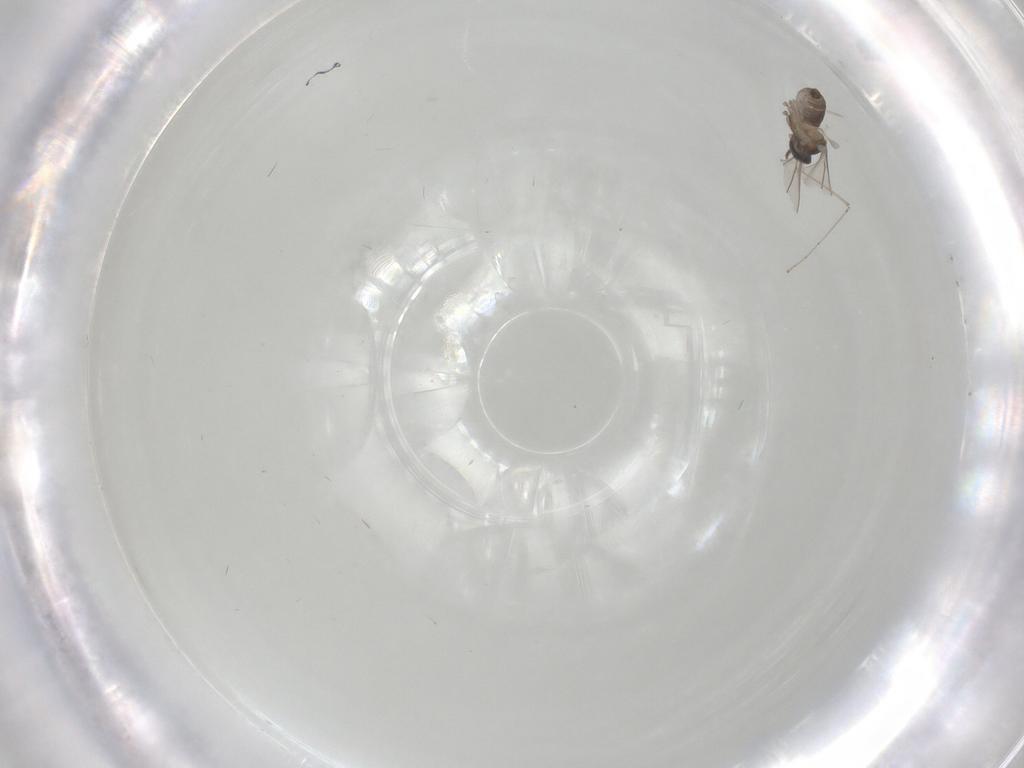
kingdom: Animalia
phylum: Arthropoda
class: Insecta
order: Diptera
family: Cecidomyiidae
